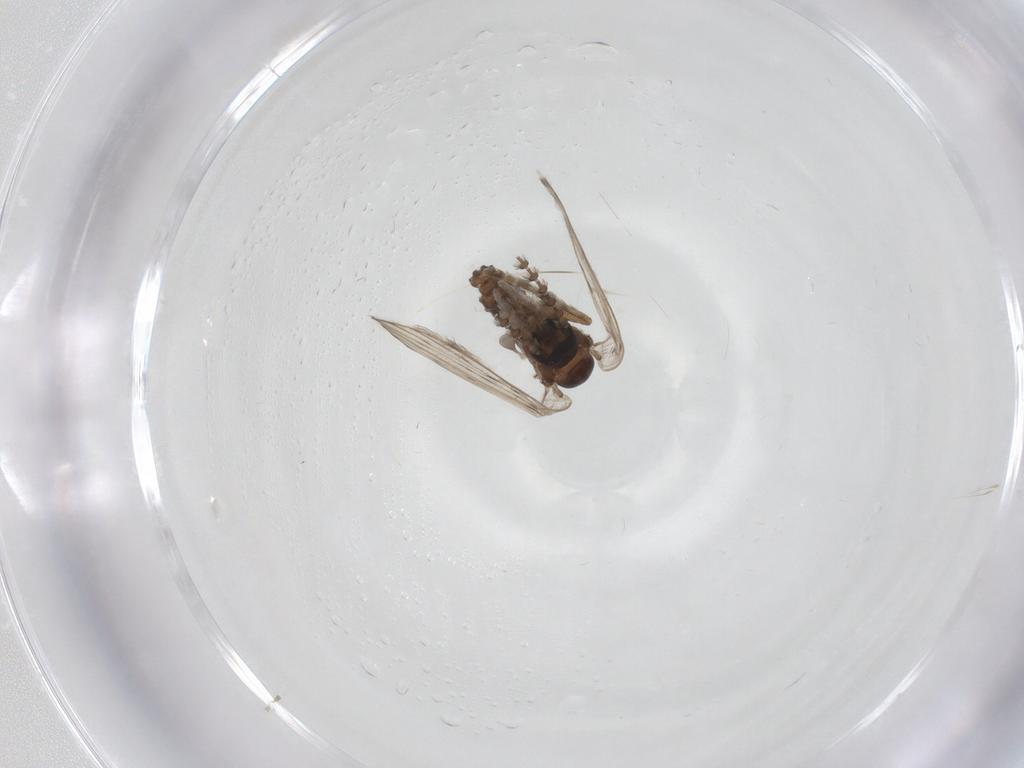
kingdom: Animalia
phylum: Arthropoda
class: Insecta
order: Diptera
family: Psychodidae
